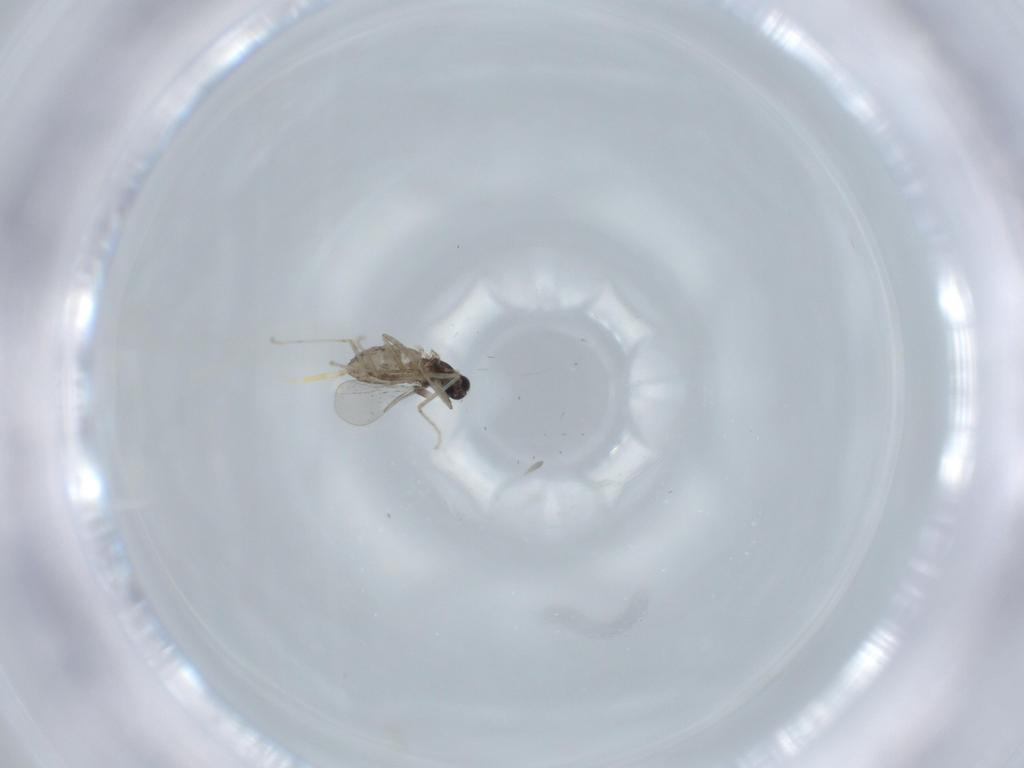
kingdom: Animalia
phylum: Arthropoda
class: Insecta
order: Diptera
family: Cecidomyiidae
